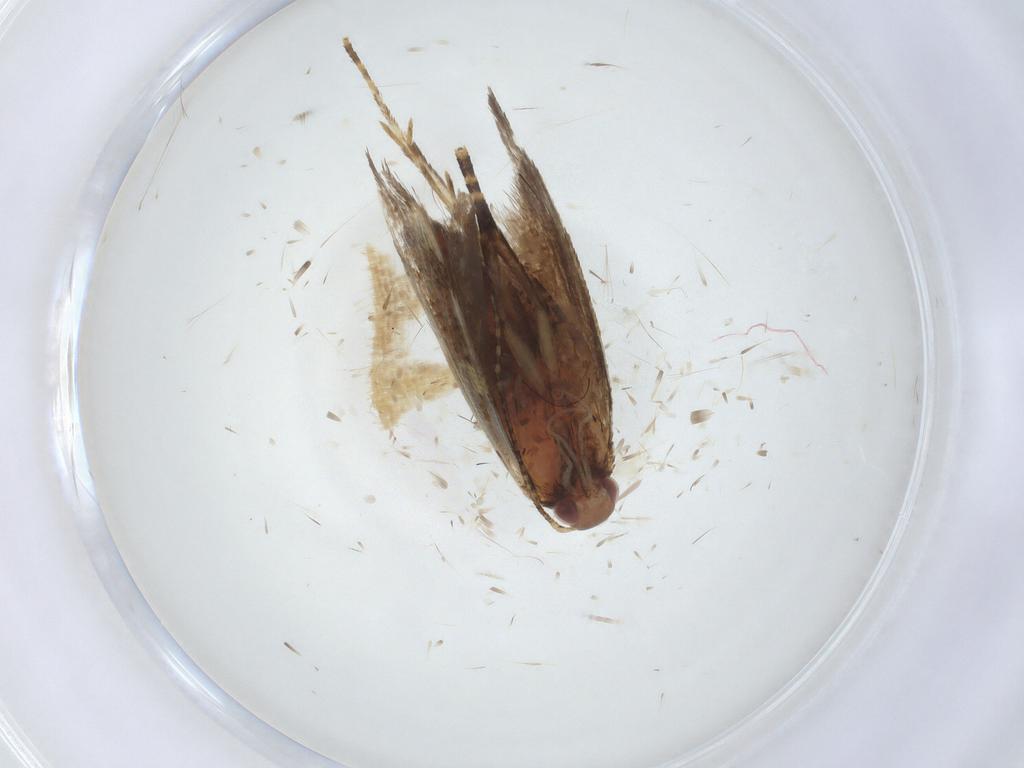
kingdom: Animalia
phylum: Arthropoda
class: Insecta
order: Lepidoptera
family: Oecophoridae
